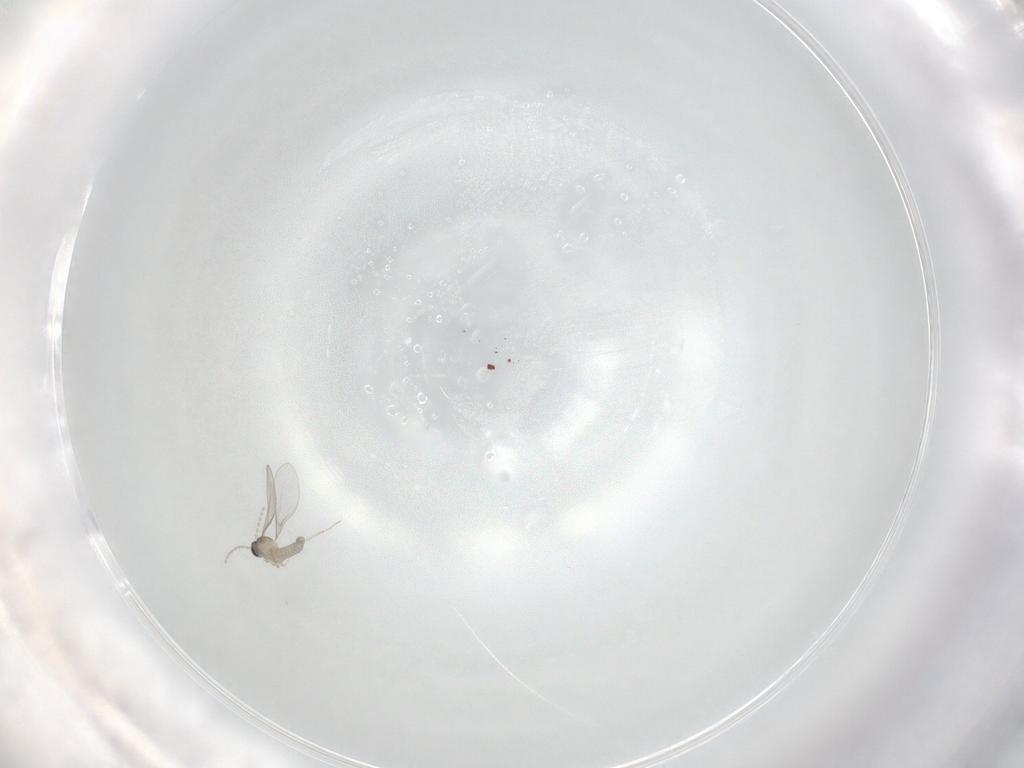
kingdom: Animalia
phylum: Arthropoda
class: Insecta
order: Diptera
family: Cecidomyiidae
